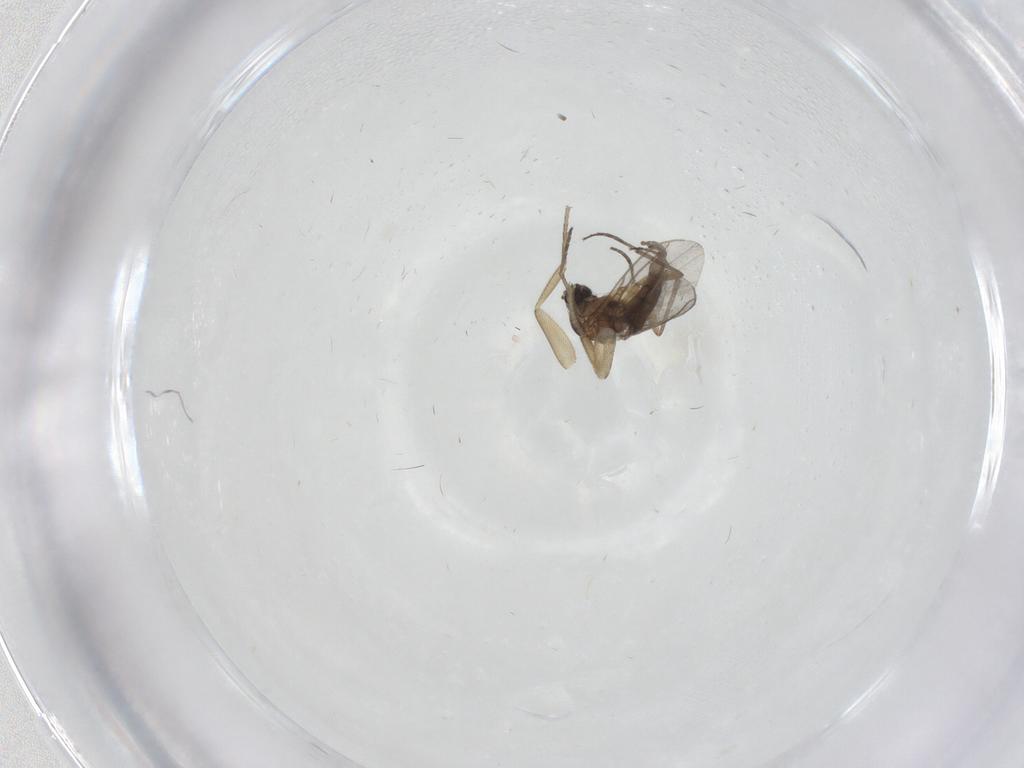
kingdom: Animalia
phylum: Arthropoda
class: Insecta
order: Diptera
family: Sciaridae
